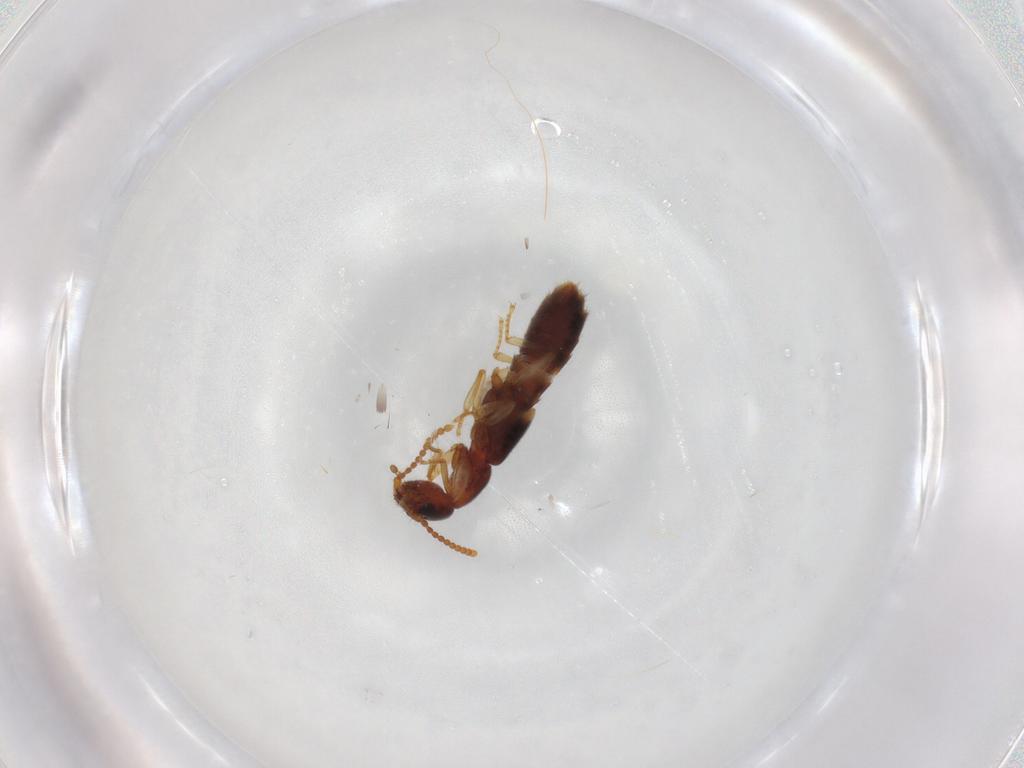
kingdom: Animalia
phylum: Arthropoda
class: Insecta
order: Coleoptera
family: Staphylinidae
